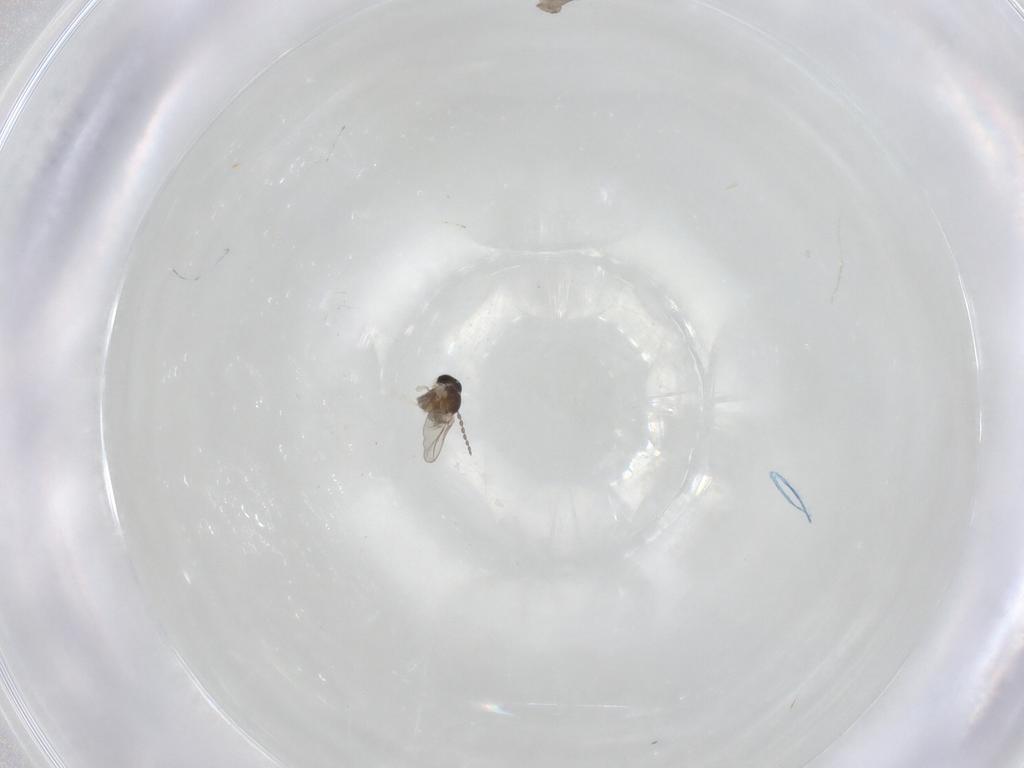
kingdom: Animalia
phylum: Arthropoda
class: Insecta
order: Diptera
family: Cecidomyiidae
